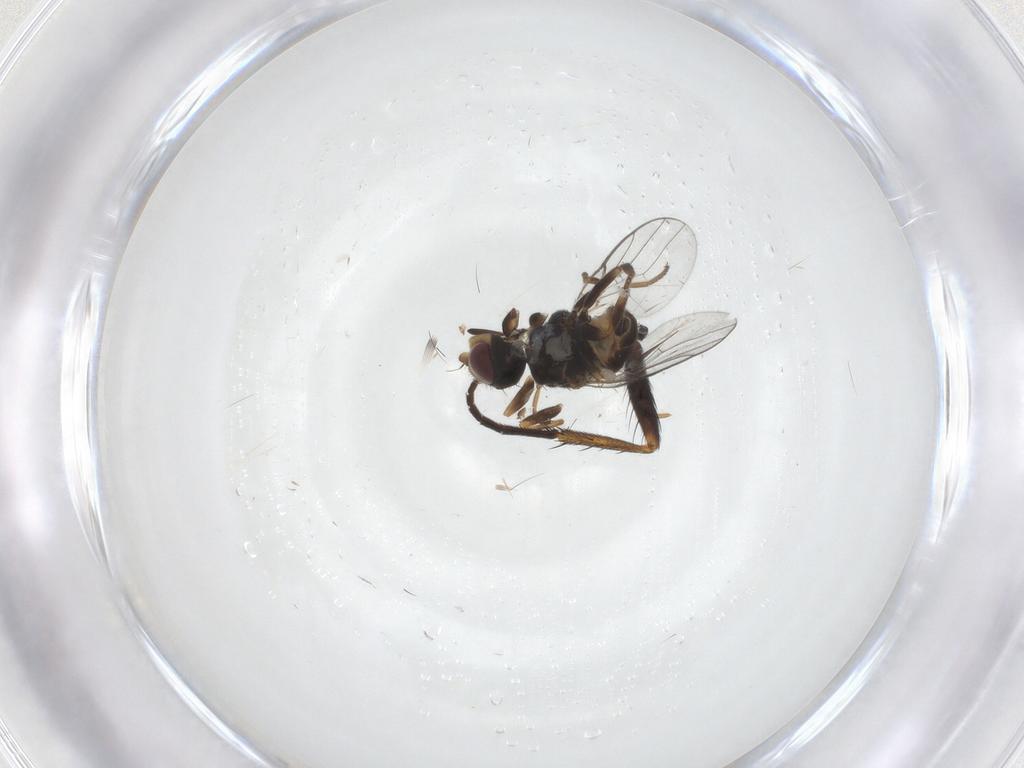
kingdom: Animalia
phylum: Arthropoda
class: Insecta
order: Diptera
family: Chloropidae
